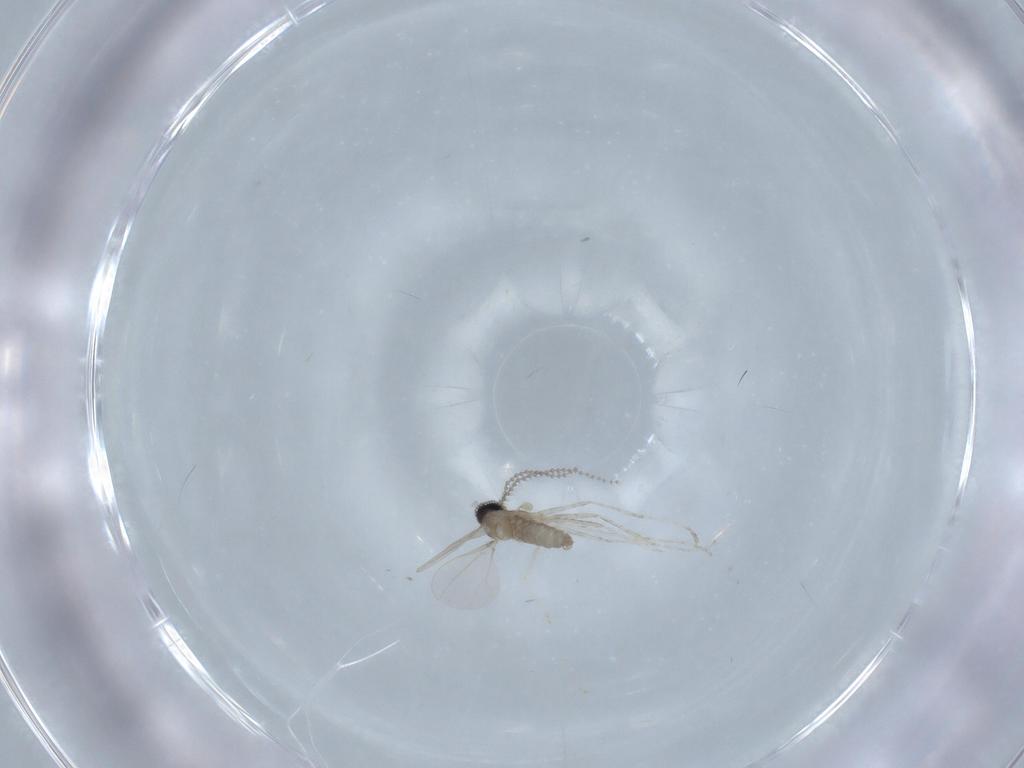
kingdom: Animalia
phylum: Arthropoda
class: Insecta
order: Diptera
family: Cecidomyiidae
